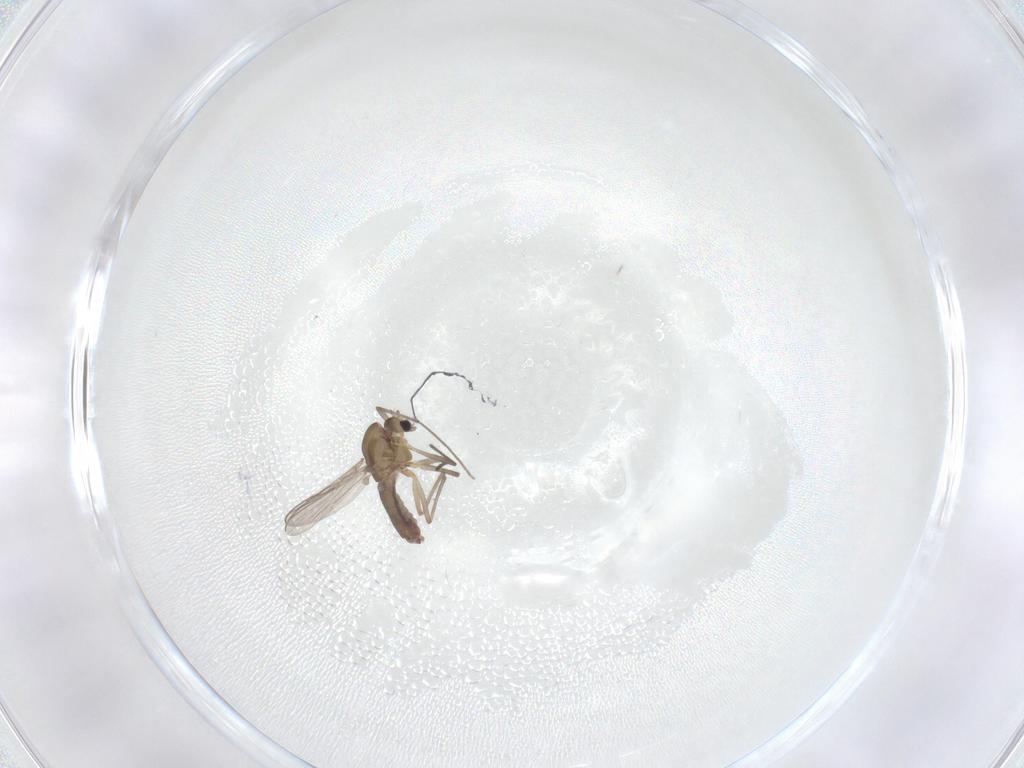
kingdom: Animalia
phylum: Arthropoda
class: Insecta
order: Diptera
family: Chironomidae
